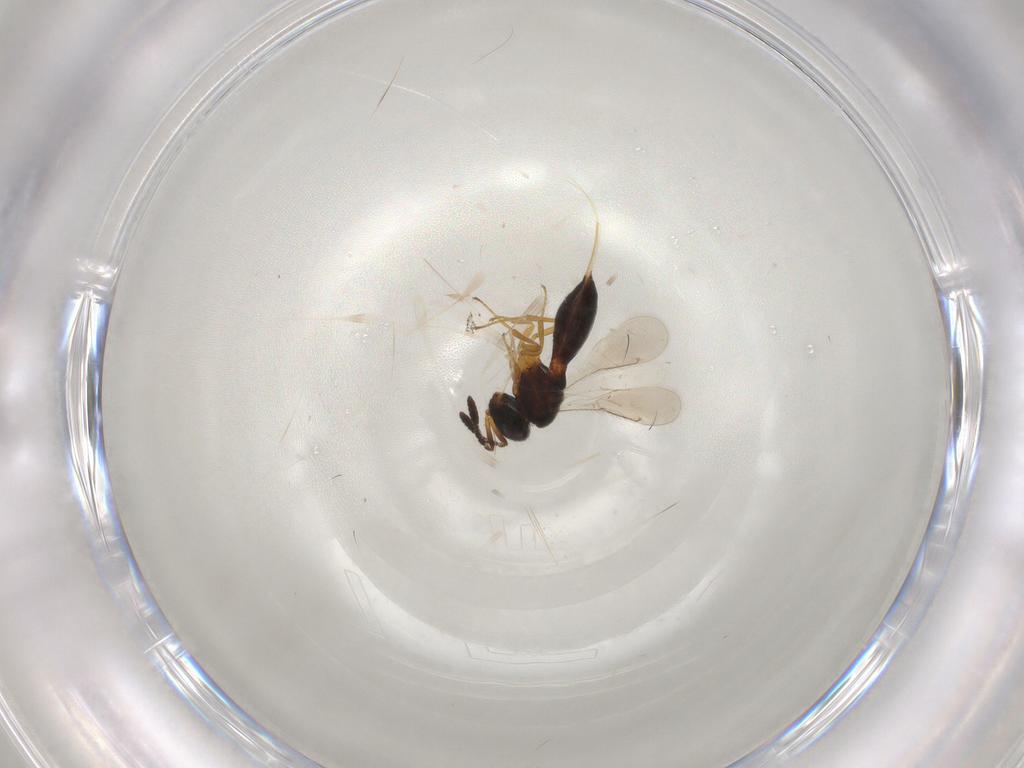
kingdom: Animalia
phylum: Arthropoda
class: Insecta
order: Hymenoptera
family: Scelionidae
